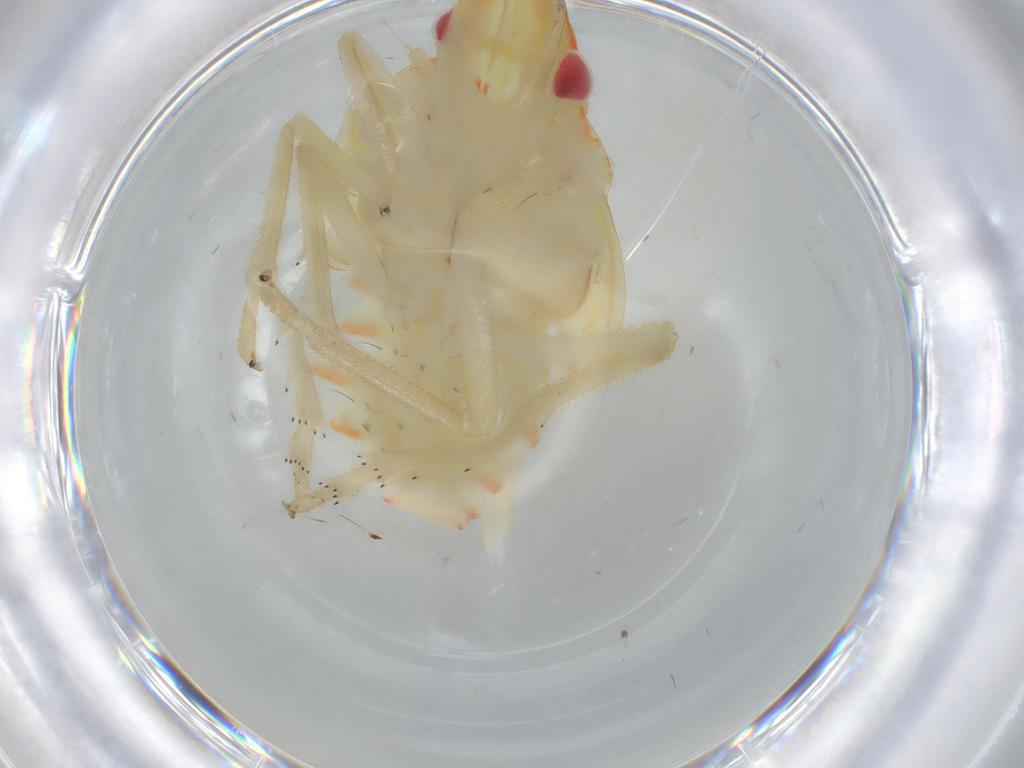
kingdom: Animalia
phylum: Arthropoda
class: Insecta
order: Hemiptera
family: Tropiduchidae
